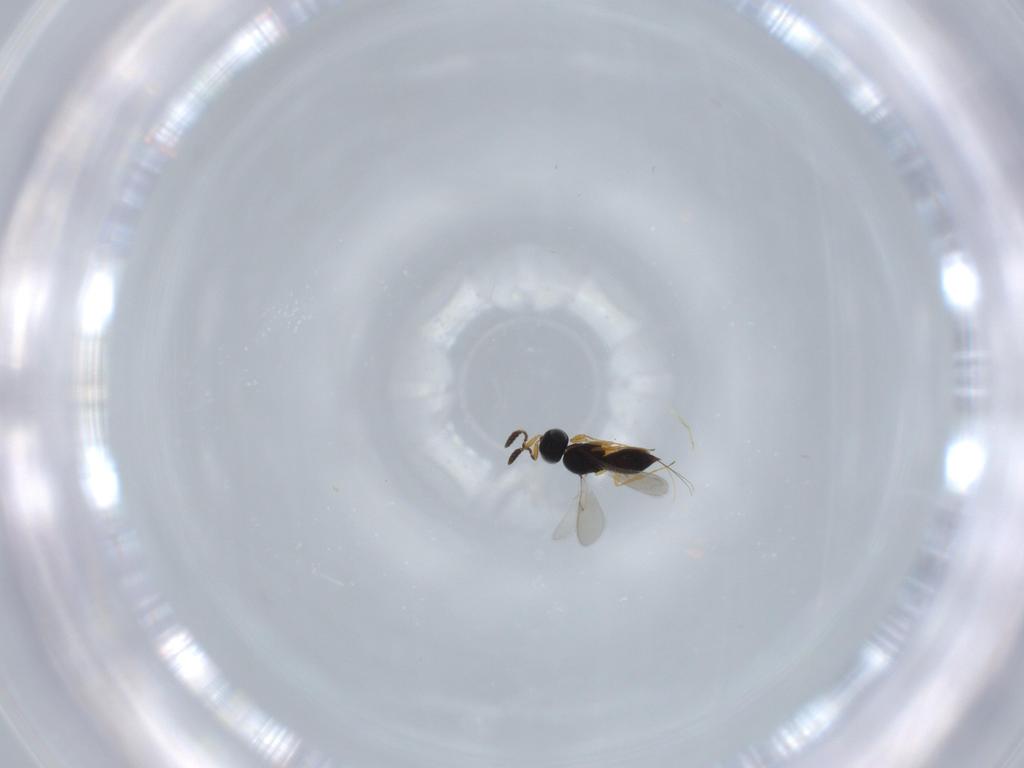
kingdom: Animalia
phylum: Arthropoda
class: Insecta
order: Hymenoptera
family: Scelionidae
